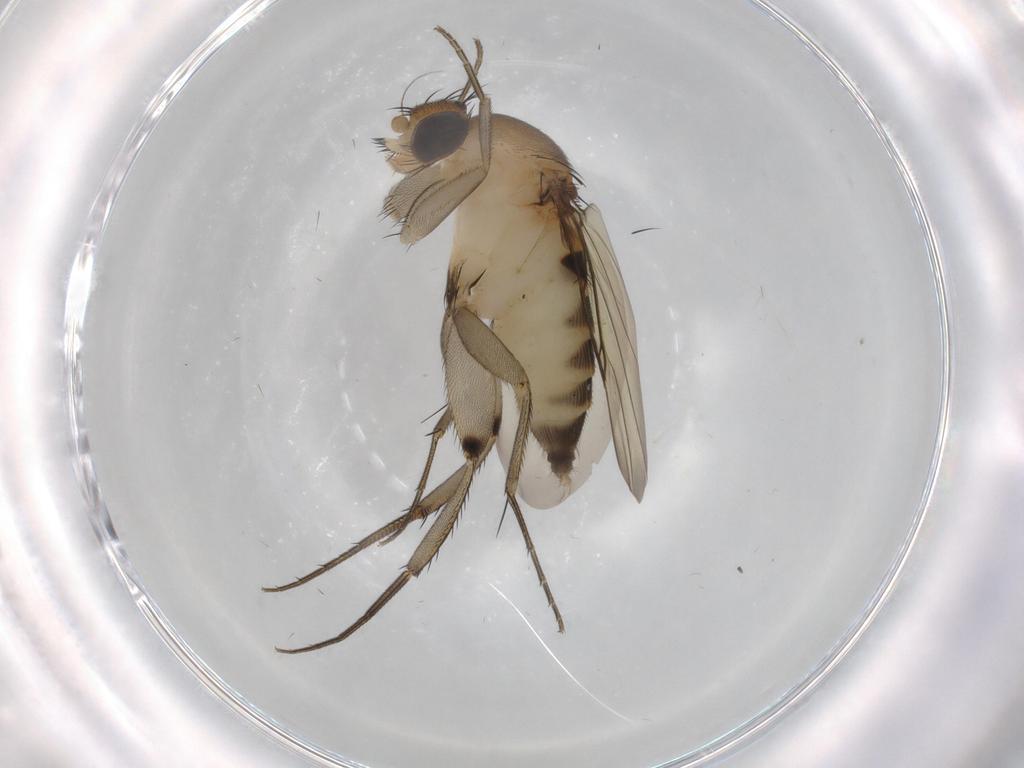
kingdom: Animalia
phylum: Arthropoda
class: Insecta
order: Diptera
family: Phoridae
